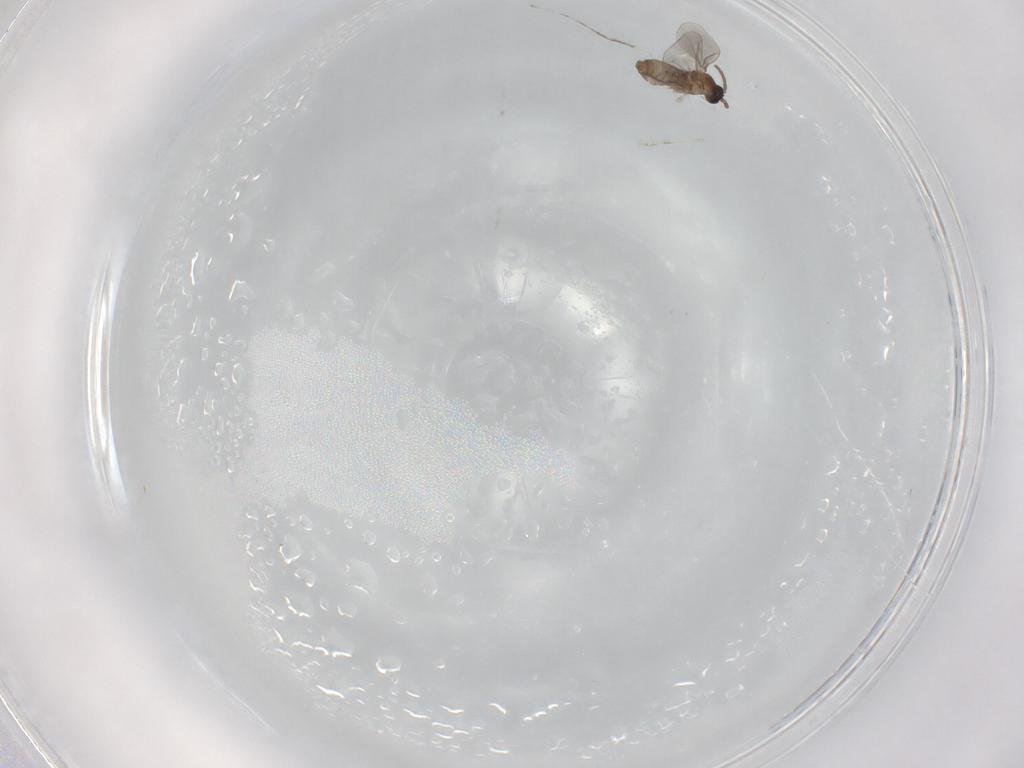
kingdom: Animalia
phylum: Arthropoda
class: Insecta
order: Diptera
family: Cecidomyiidae
